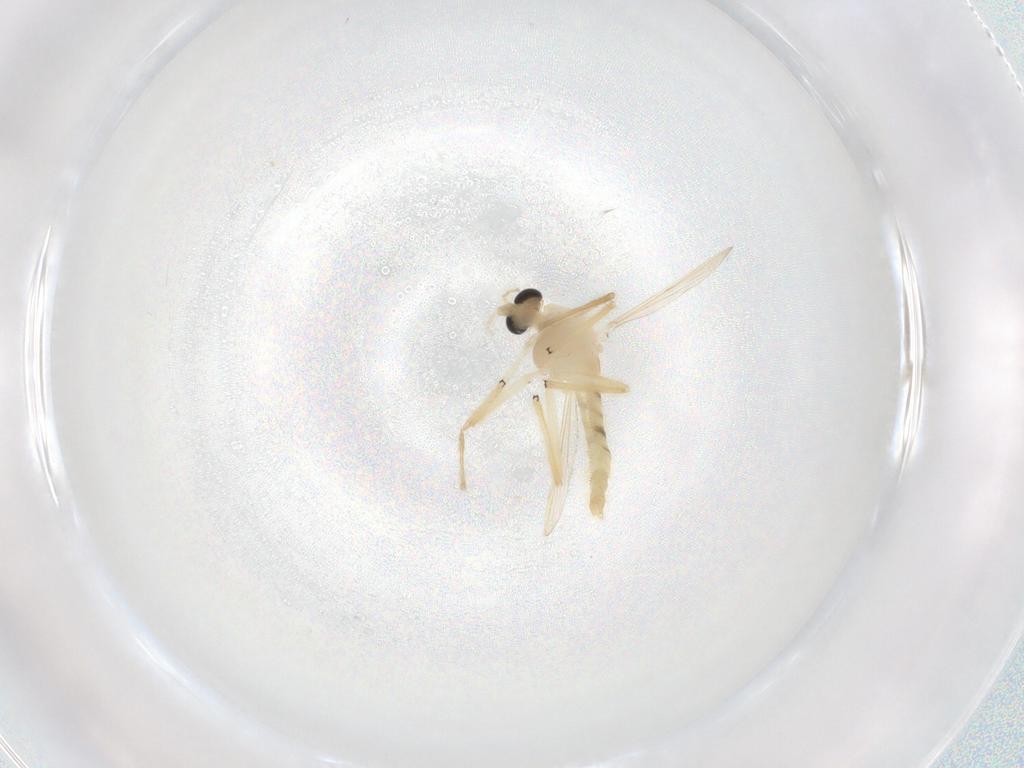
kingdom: Animalia
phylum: Arthropoda
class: Insecta
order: Diptera
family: Chironomidae
